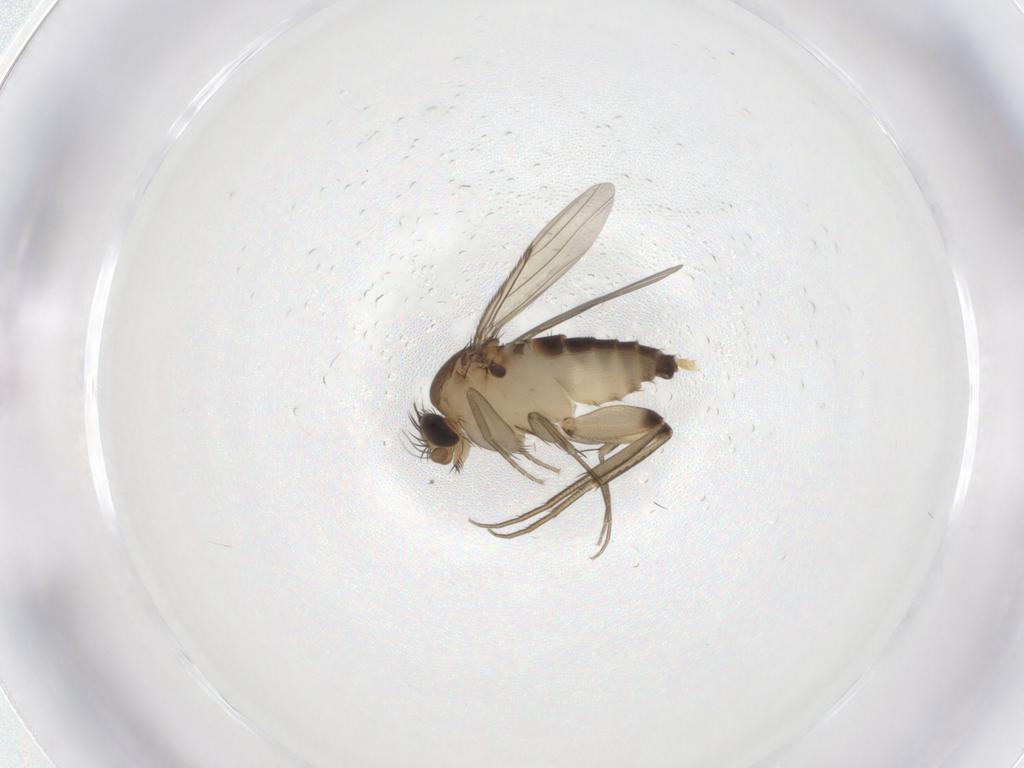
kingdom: Animalia
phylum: Arthropoda
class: Insecta
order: Diptera
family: Phoridae
